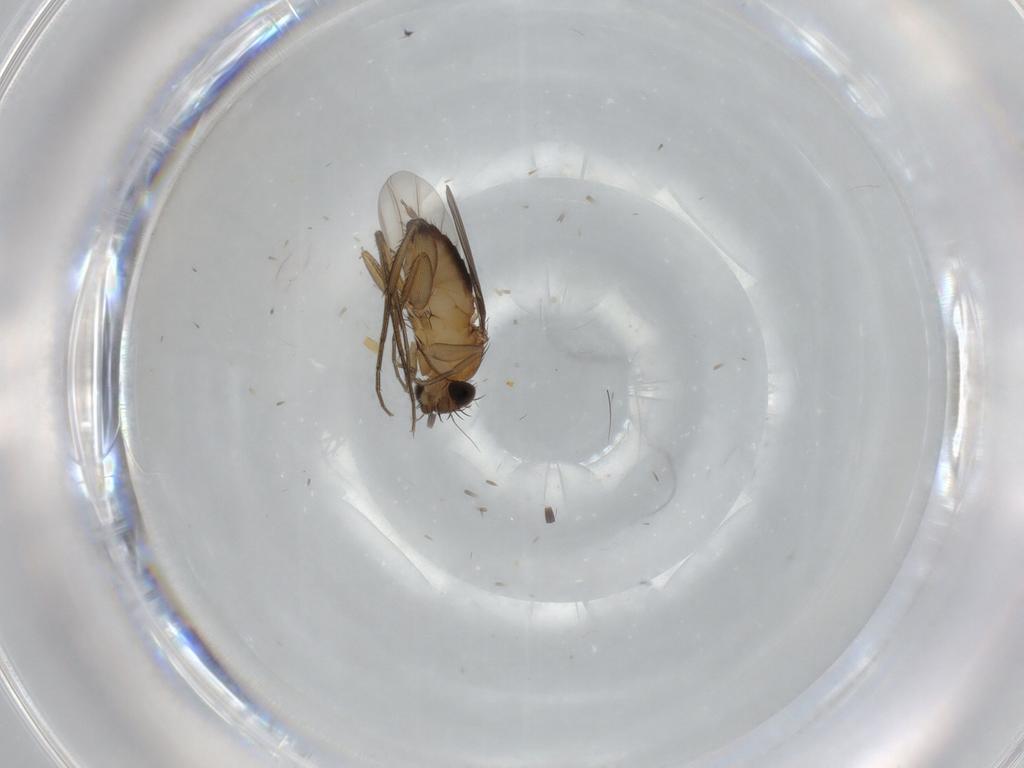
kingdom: Animalia
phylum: Arthropoda
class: Insecta
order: Diptera
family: Phoridae
